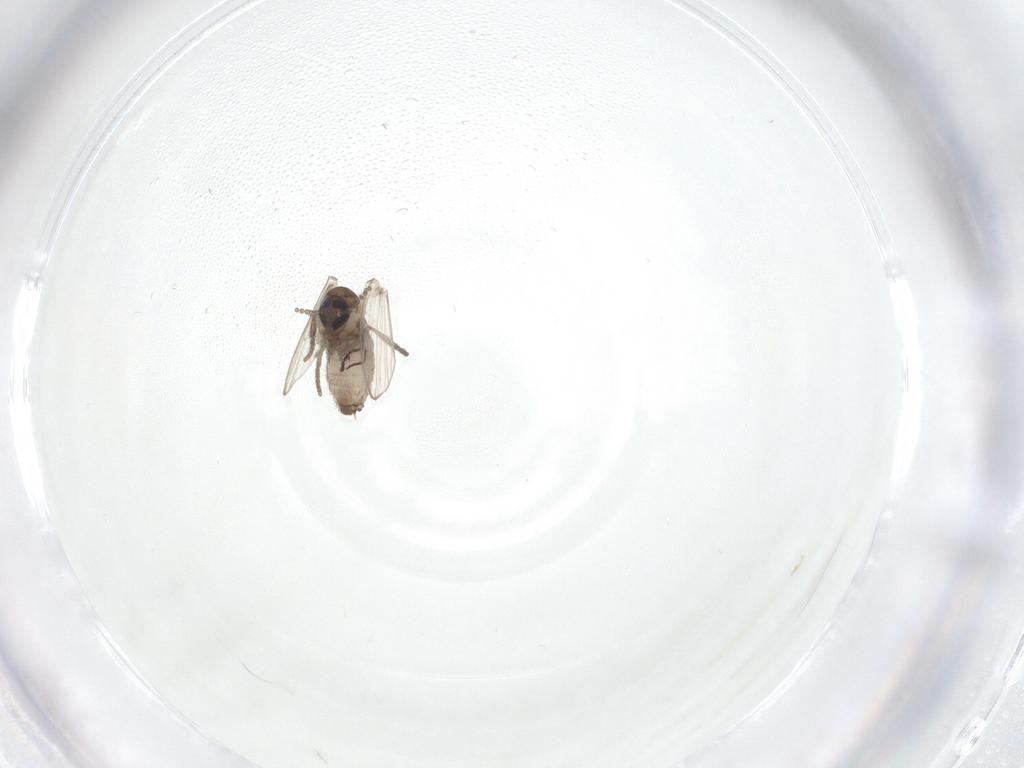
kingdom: Animalia
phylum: Arthropoda
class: Insecta
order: Diptera
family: Psychodidae
